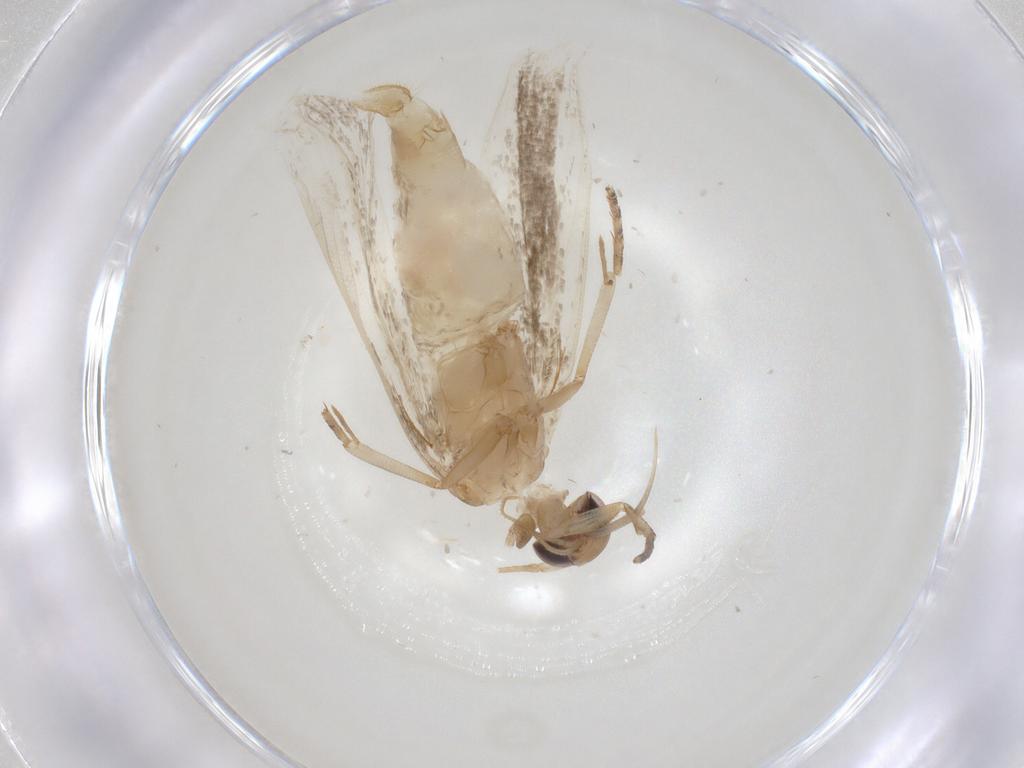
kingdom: Animalia
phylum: Arthropoda
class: Insecta
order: Lepidoptera
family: Gelechiidae
